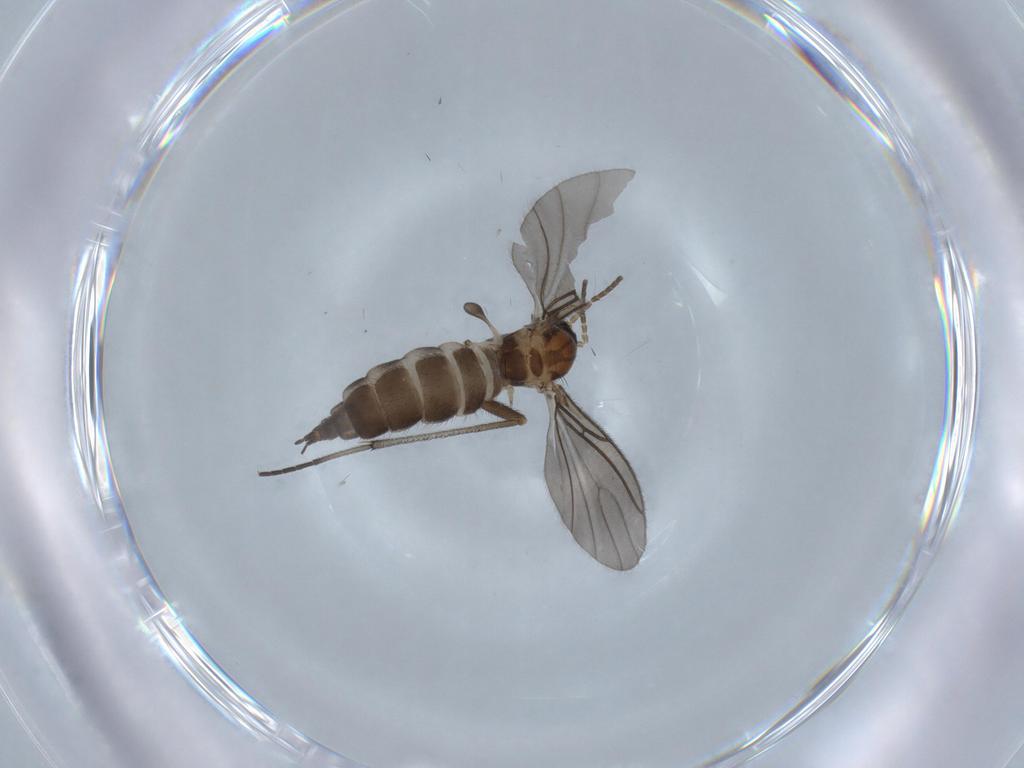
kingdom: Animalia
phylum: Arthropoda
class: Insecta
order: Diptera
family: Sciaridae
